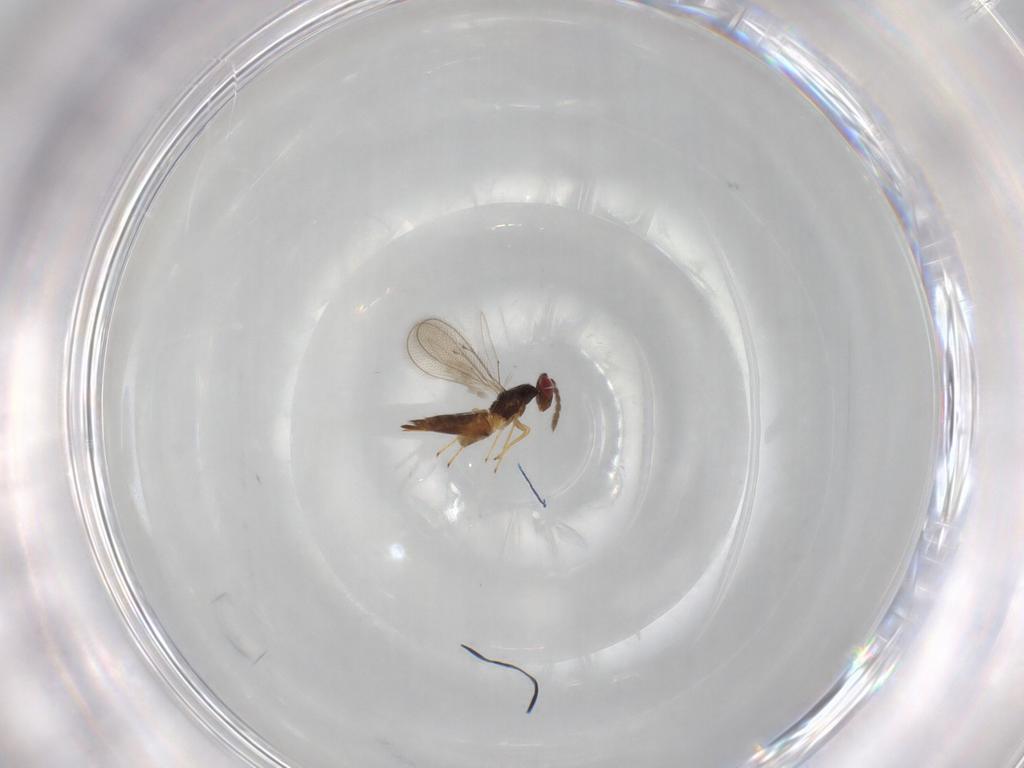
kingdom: Animalia
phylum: Arthropoda
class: Insecta
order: Hymenoptera
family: Eulophidae
